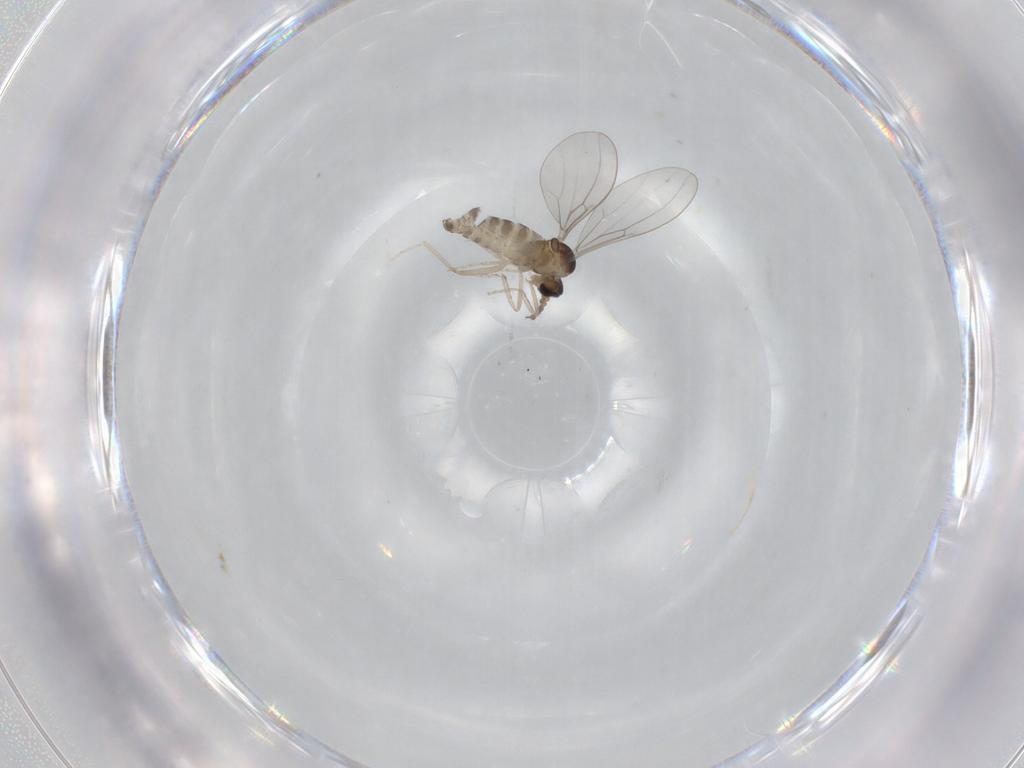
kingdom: Animalia
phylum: Arthropoda
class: Insecta
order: Diptera
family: Cecidomyiidae
